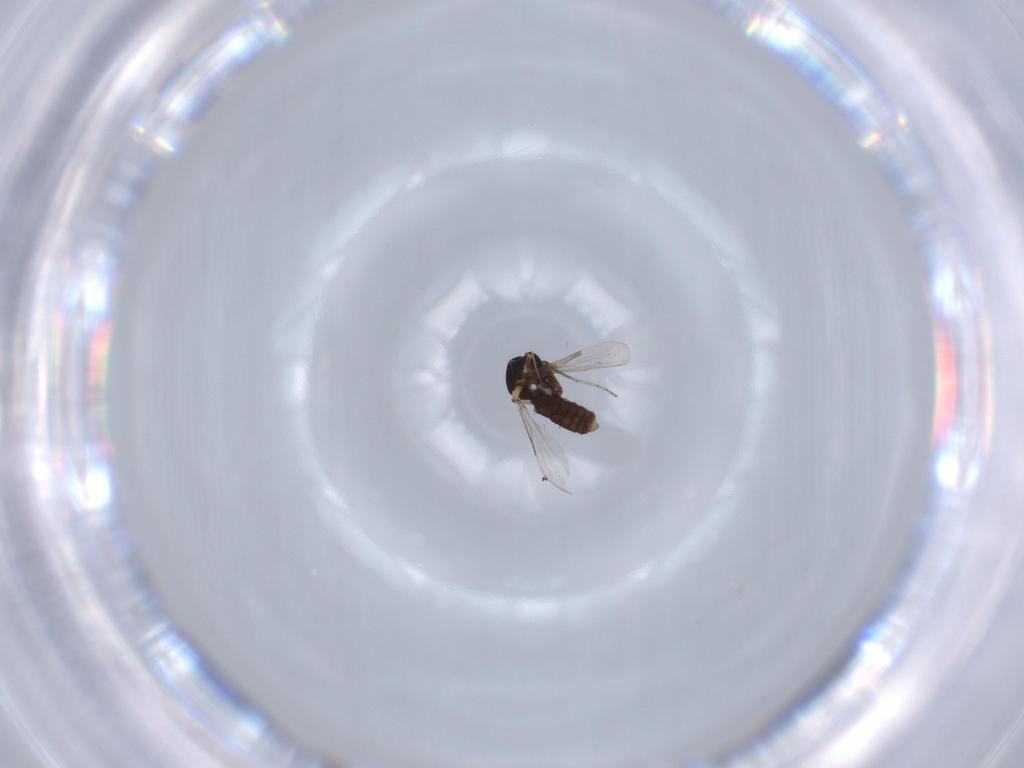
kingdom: Animalia
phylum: Arthropoda
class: Insecta
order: Diptera
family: Ceratopogonidae
